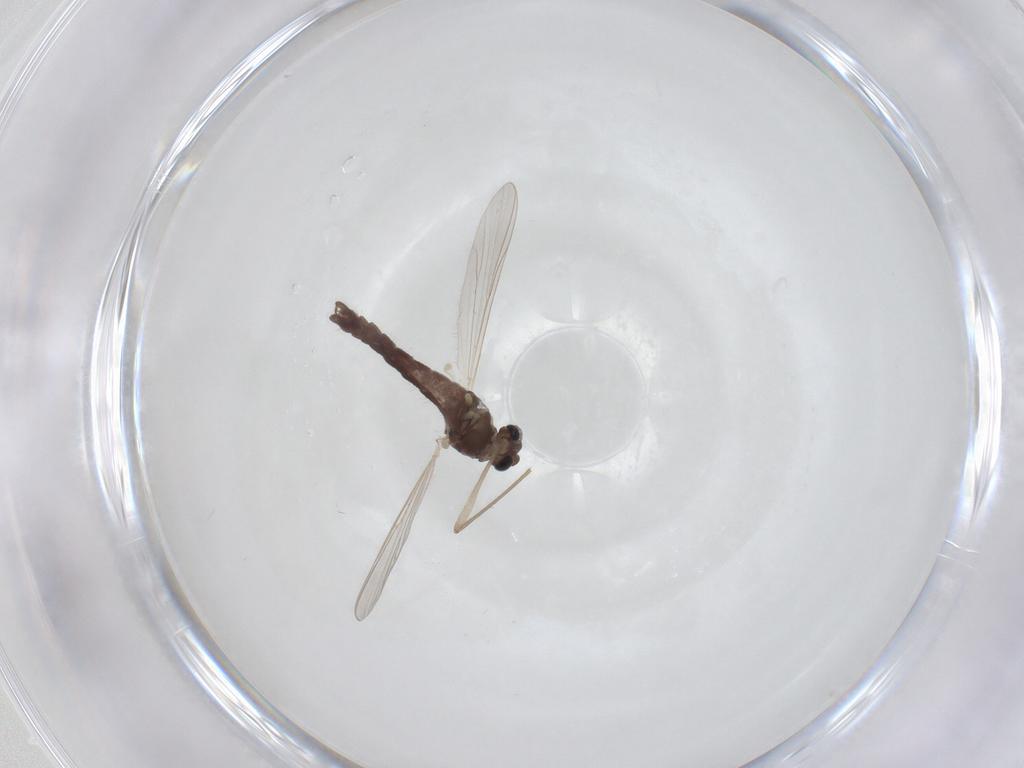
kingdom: Animalia
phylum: Arthropoda
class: Insecta
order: Diptera
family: Chironomidae
